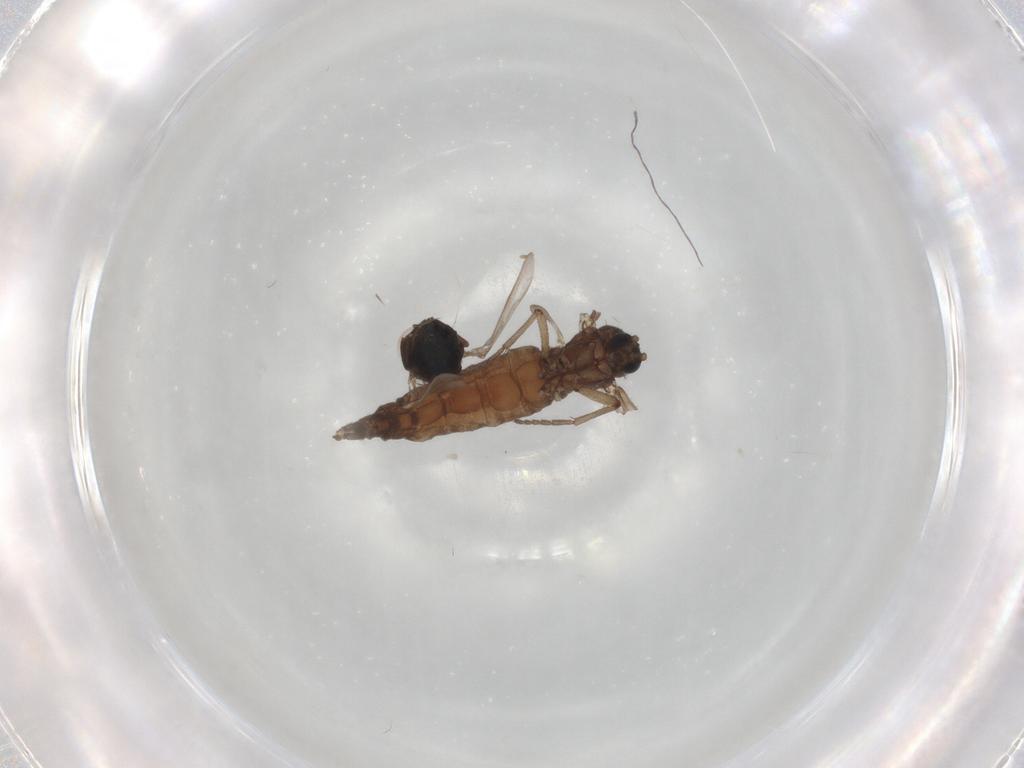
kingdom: Animalia
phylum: Arthropoda
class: Insecta
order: Diptera
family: Cryptochetidae
